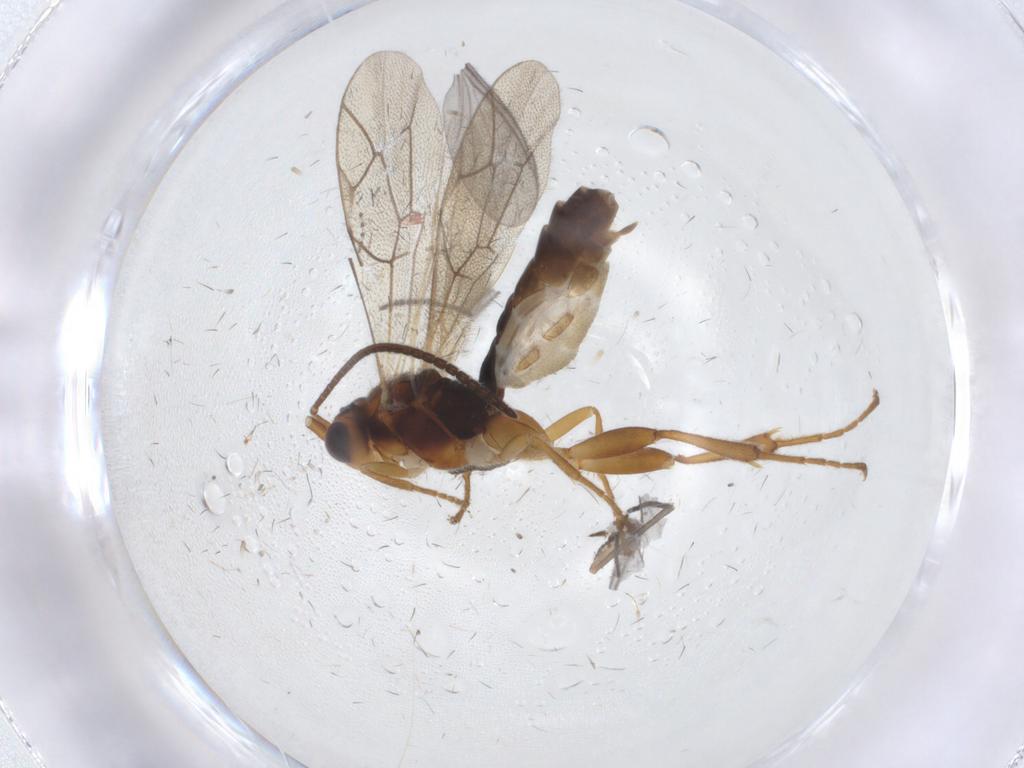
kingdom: Animalia
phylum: Arthropoda
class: Insecta
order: Hymenoptera
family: Ichneumonidae
